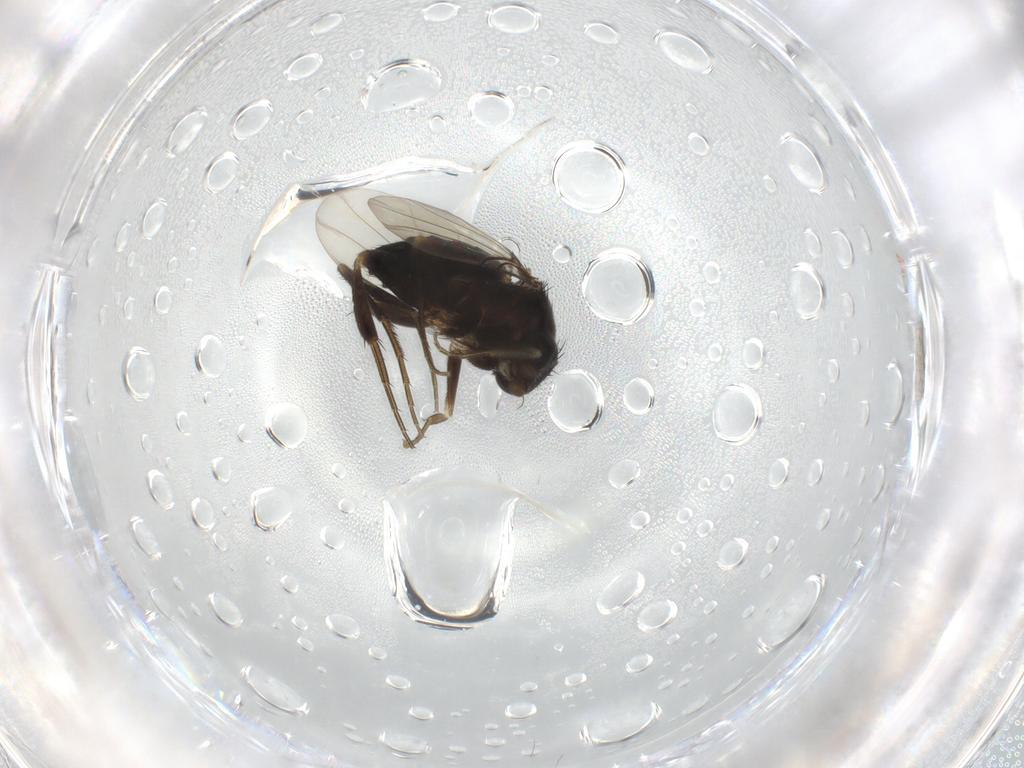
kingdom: Animalia
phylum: Arthropoda
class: Insecta
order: Diptera
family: Phoridae
